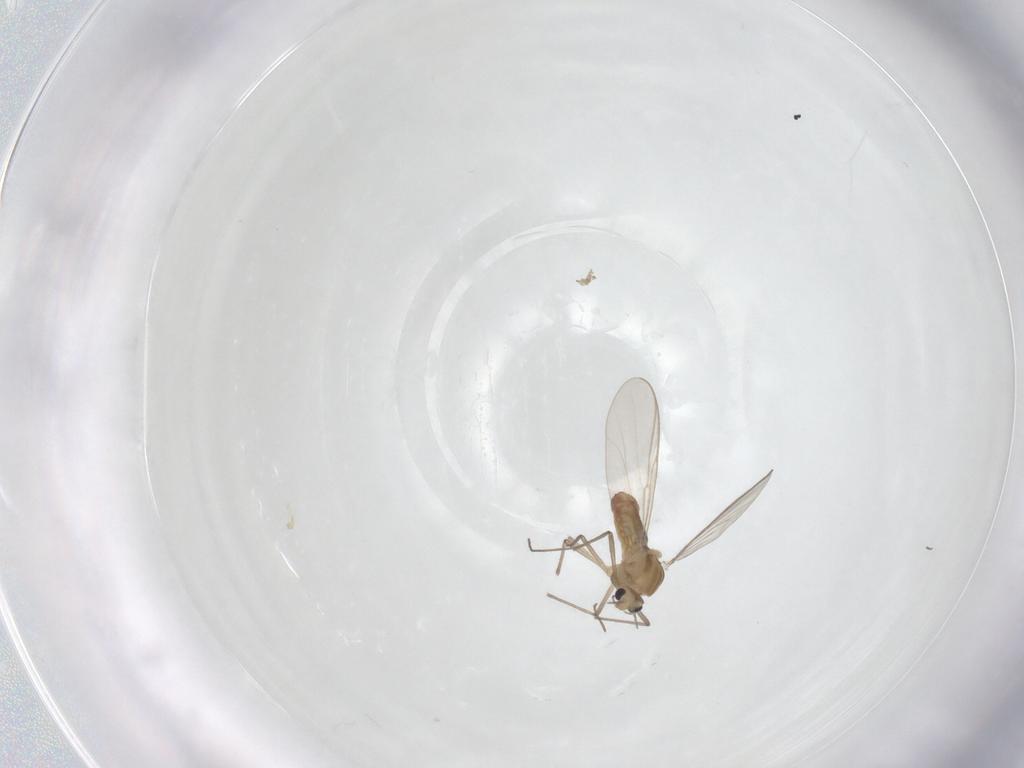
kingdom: Animalia
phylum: Arthropoda
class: Insecta
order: Diptera
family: Chironomidae
